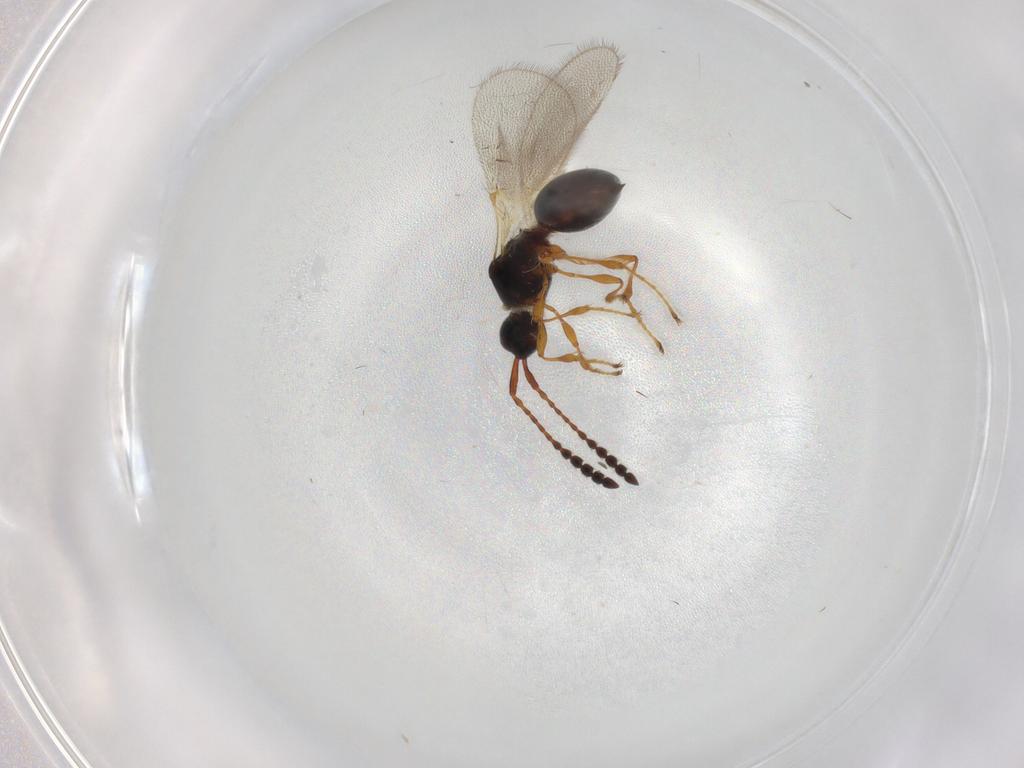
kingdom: Animalia
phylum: Arthropoda
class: Insecta
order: Hymenoptera
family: Diapriidae
